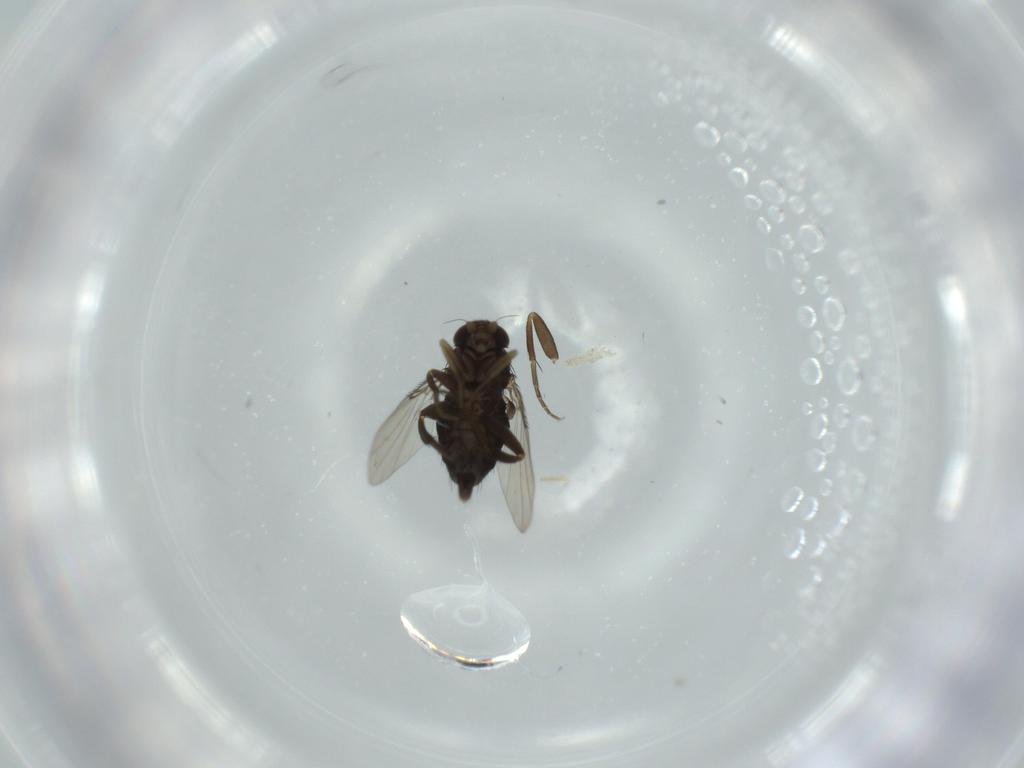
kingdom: Animalia
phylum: Arthropoda
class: Insecta
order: Diptera
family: Phoridae
